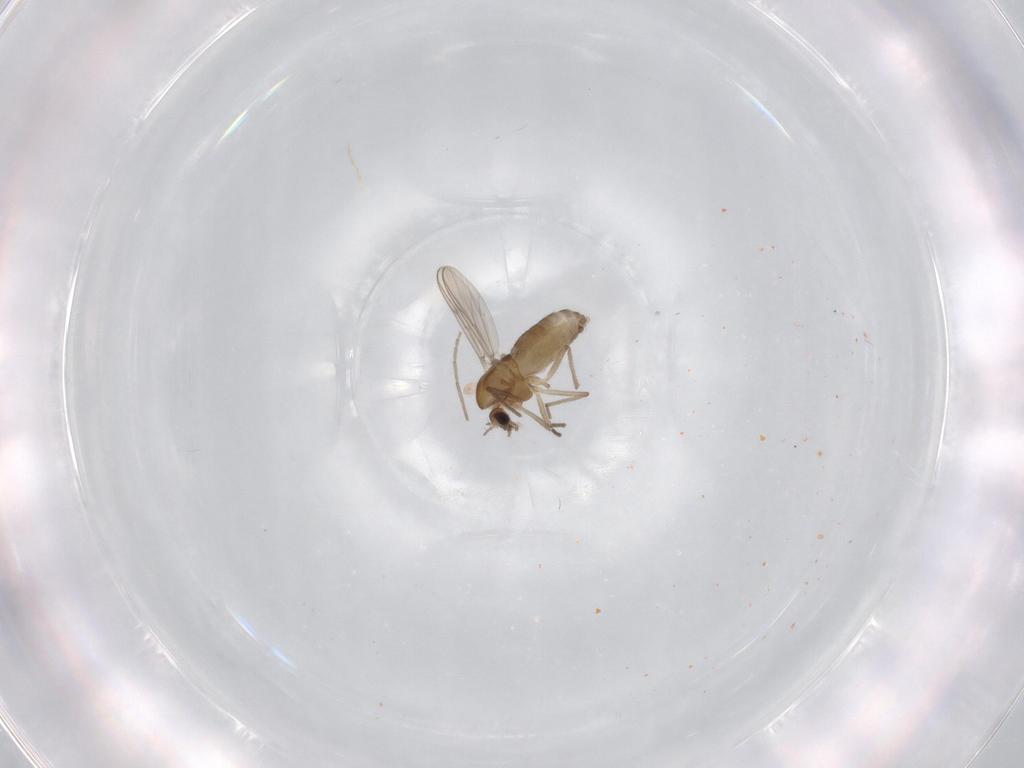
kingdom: Animalia
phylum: Arthropoda
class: Insecta
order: Diptera
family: Chironomidae
